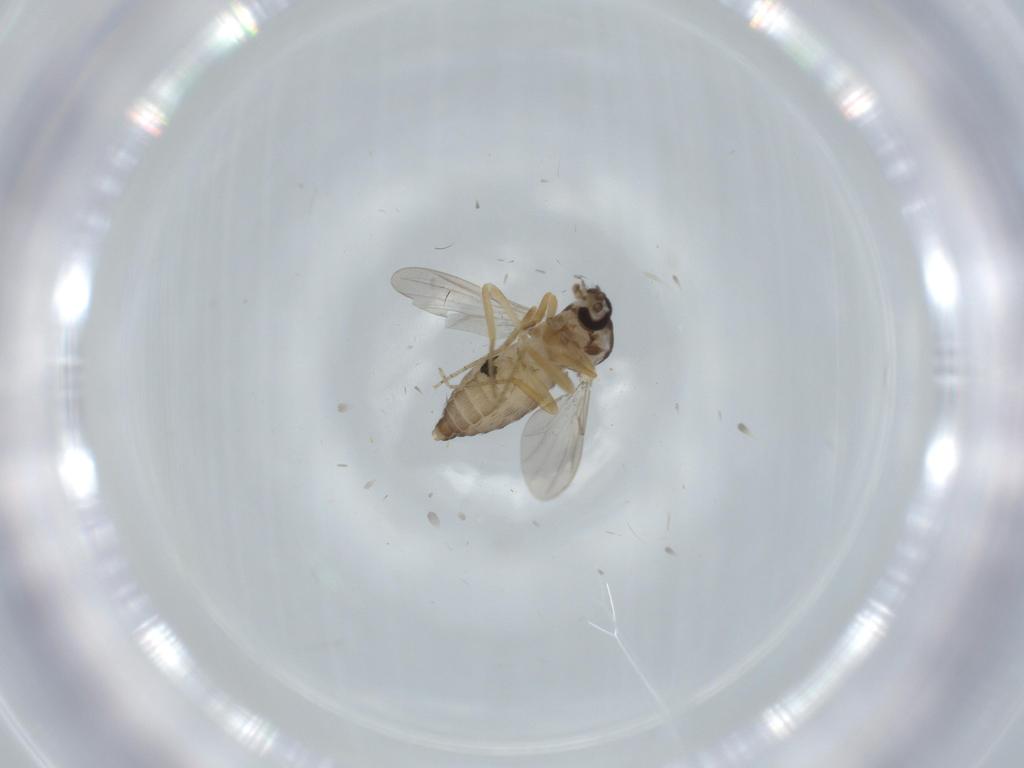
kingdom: Animalia
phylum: Arthropoda
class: Insecta
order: Diptera
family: Ceratopogonidae
